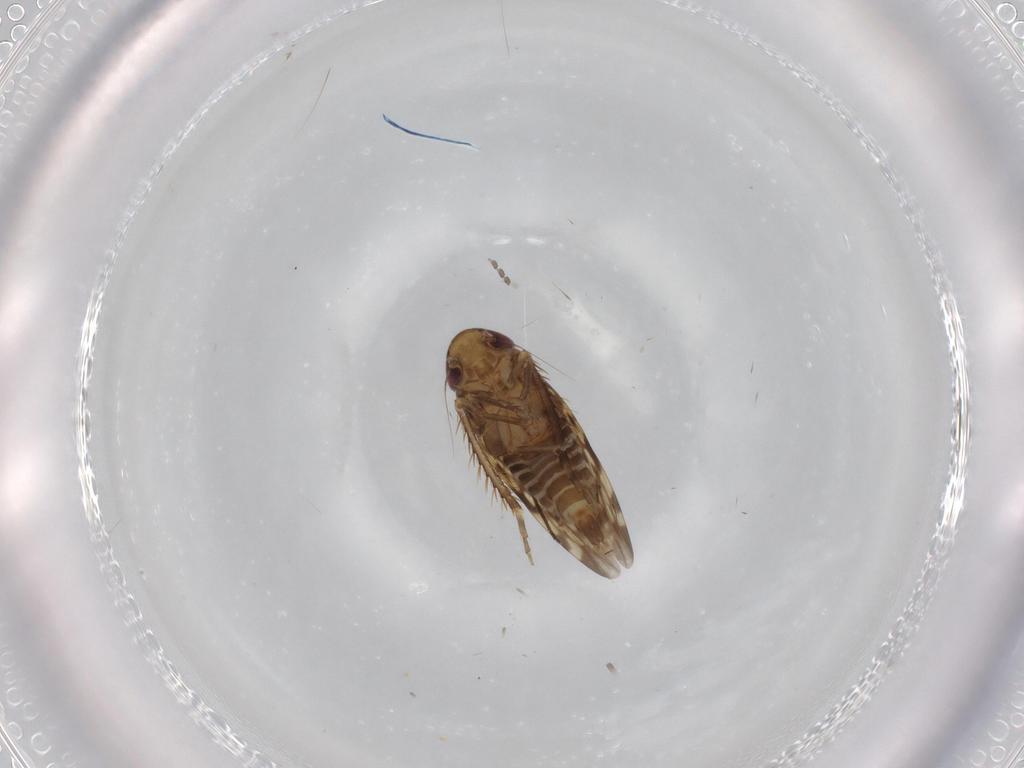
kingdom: Animalia
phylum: Arthropoda
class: Insecta
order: Hemiptera
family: Cicadellidae
